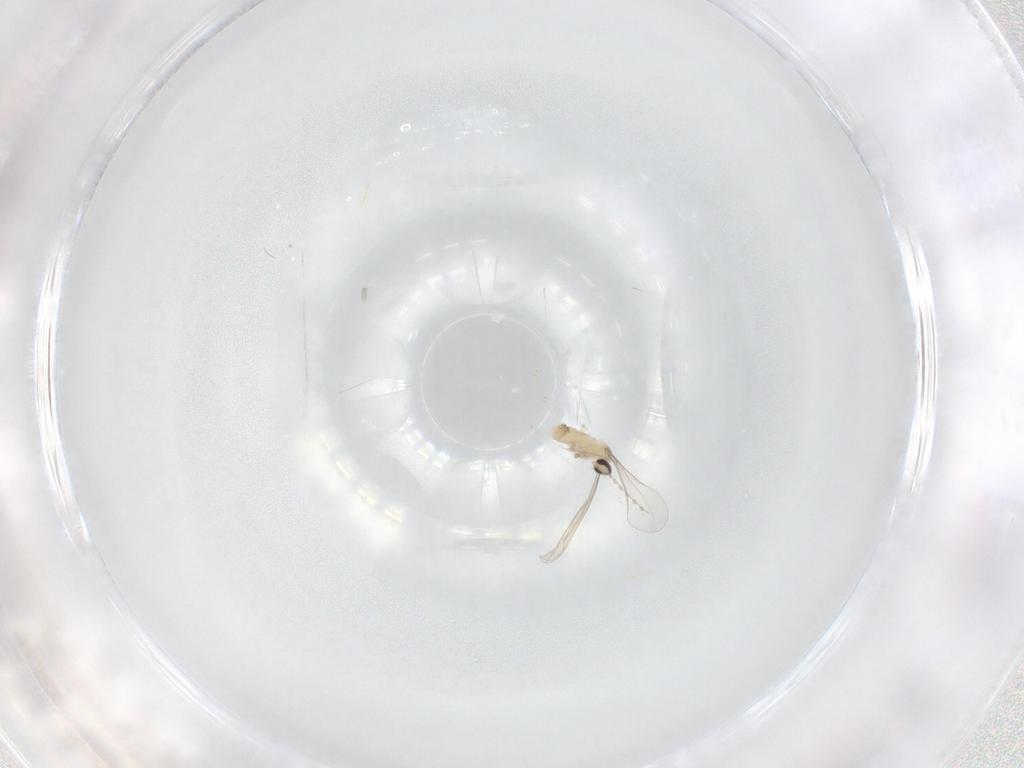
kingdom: Animalia
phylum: Arthropoda
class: Insecta
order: Diptera
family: Cecidomyiidae
